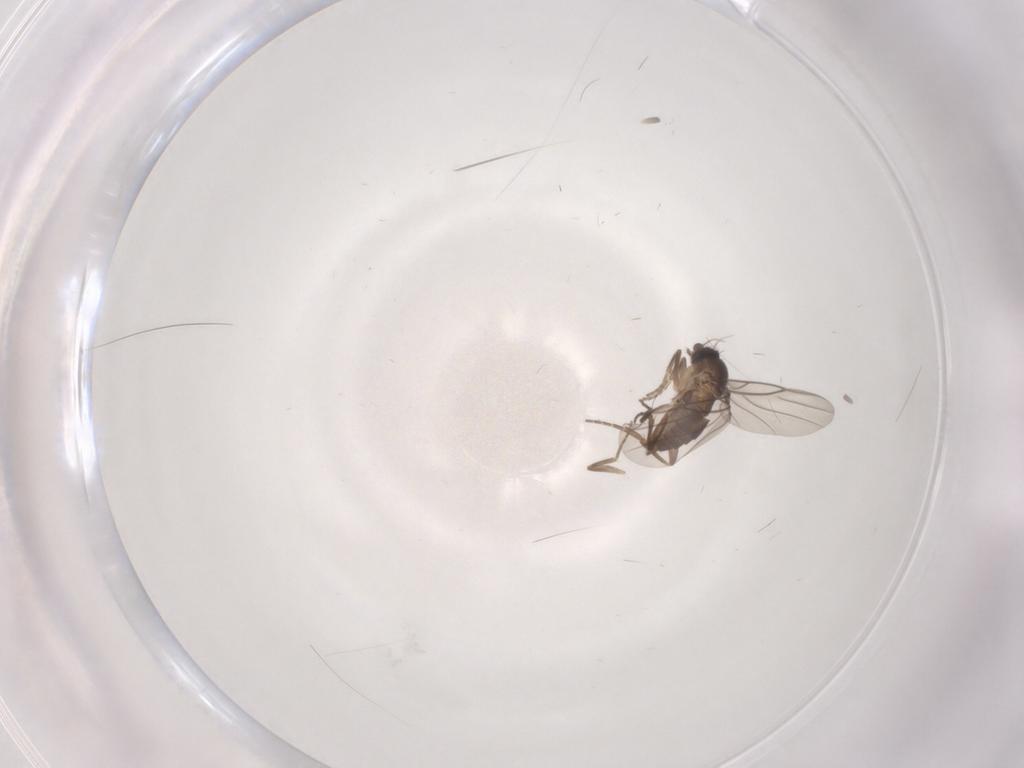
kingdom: Animalia
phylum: Arthropoda
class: Insecta
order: Diptera
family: Phoridae
